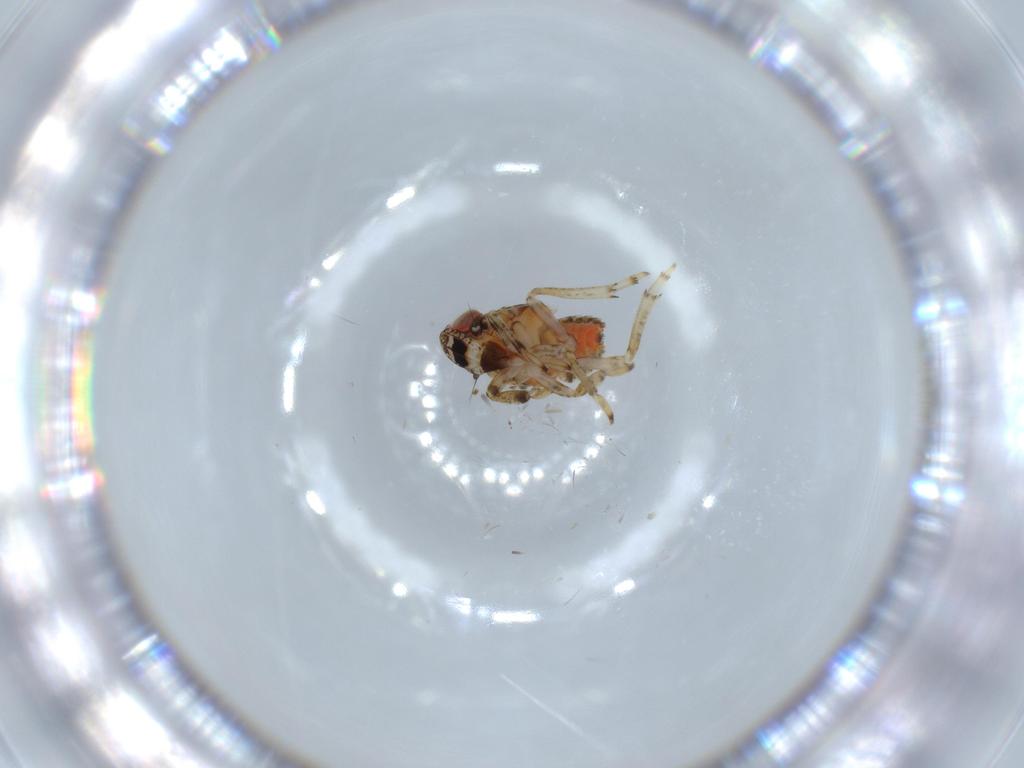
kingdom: Animalia
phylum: Arthropoda
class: Insecta
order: Hemiptera
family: Issidae
